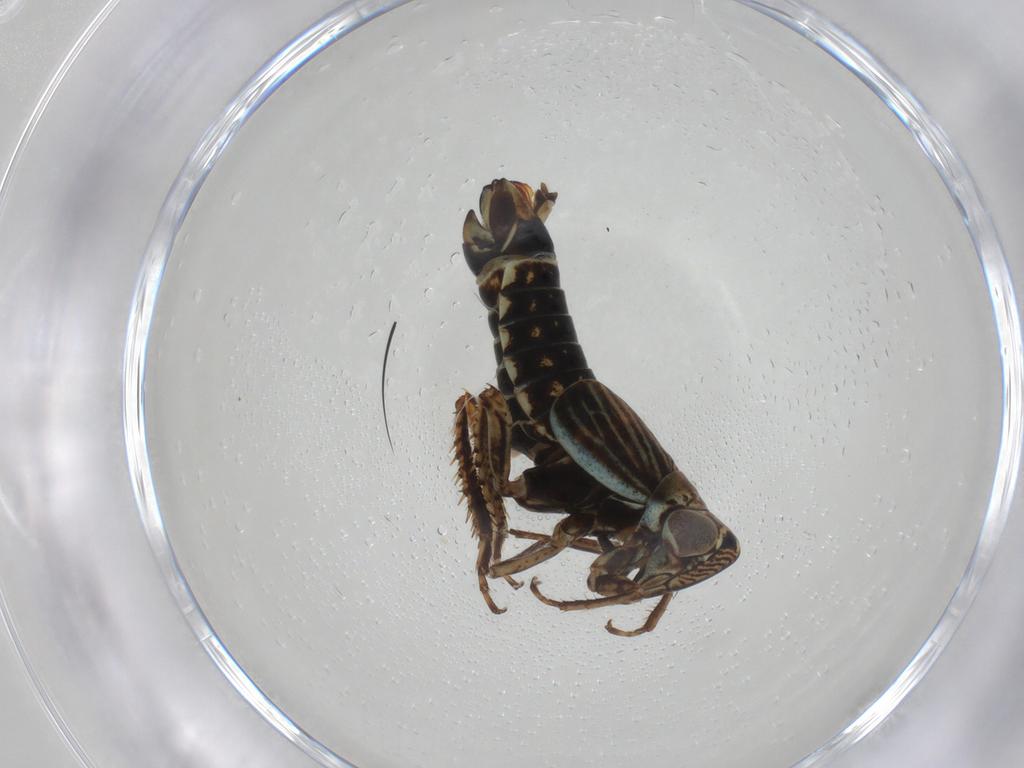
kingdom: Animalia
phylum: Arthropoda
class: Insecta
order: Hemiptera
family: Cicadellidae
